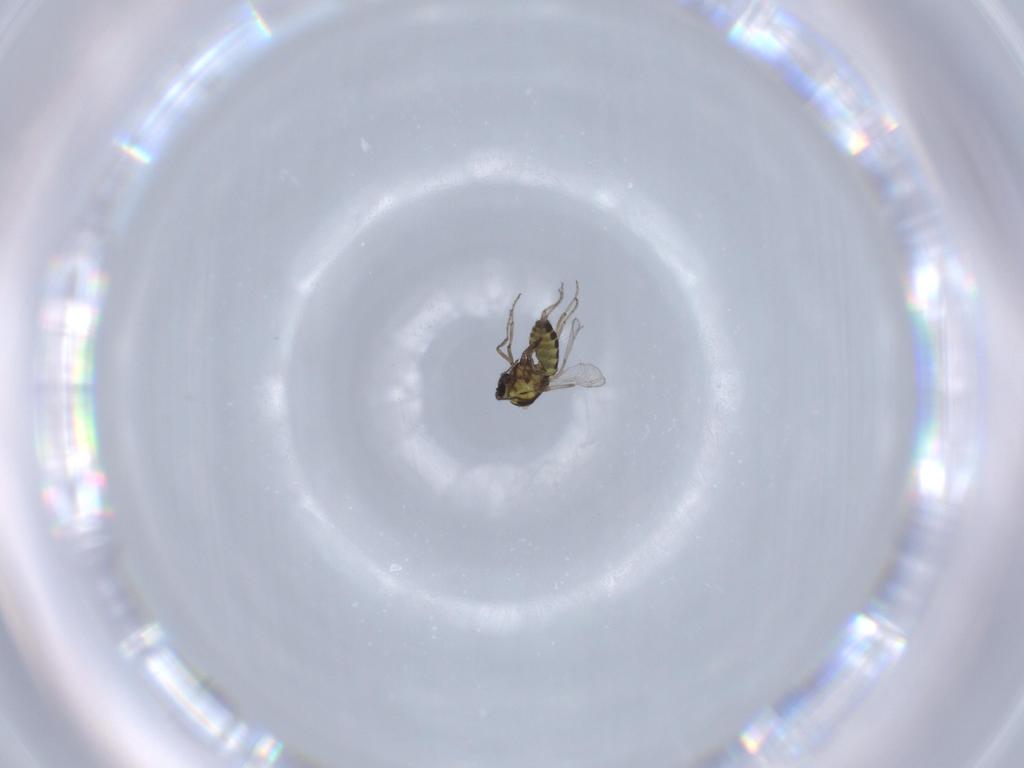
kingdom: Animalia
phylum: Arthropoda
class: Insecta
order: Diptera
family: Ceratopogonidae
